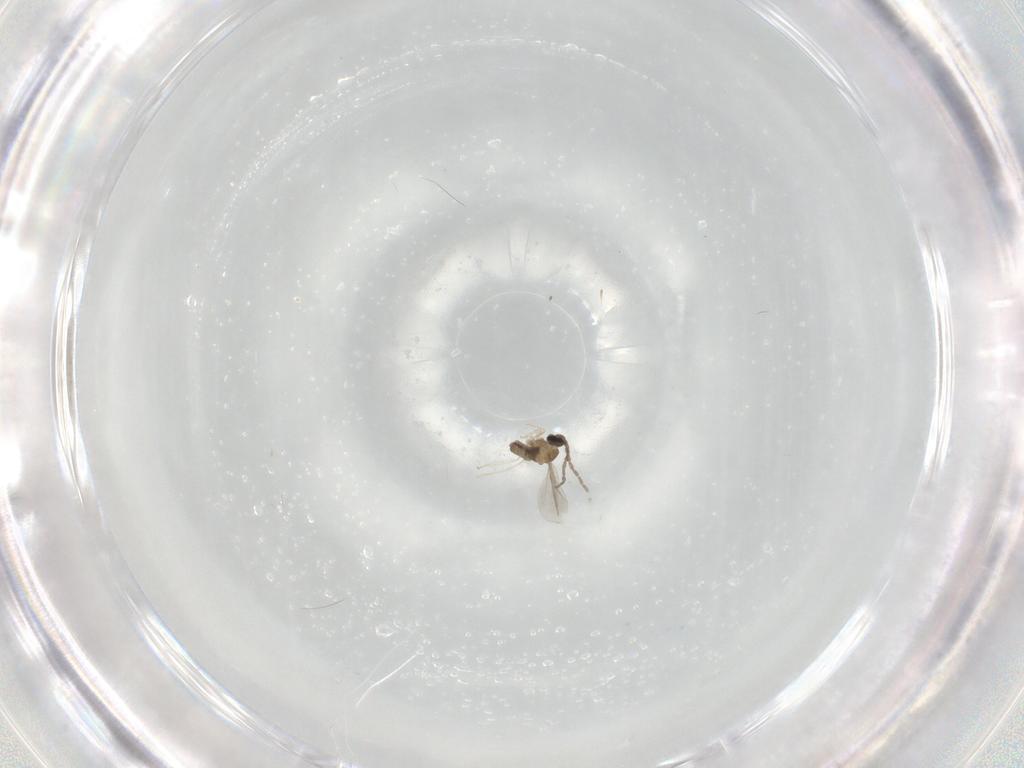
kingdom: Animalia
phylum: Arthropoda
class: Insecta
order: Diptera
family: Cecidomyiidae
